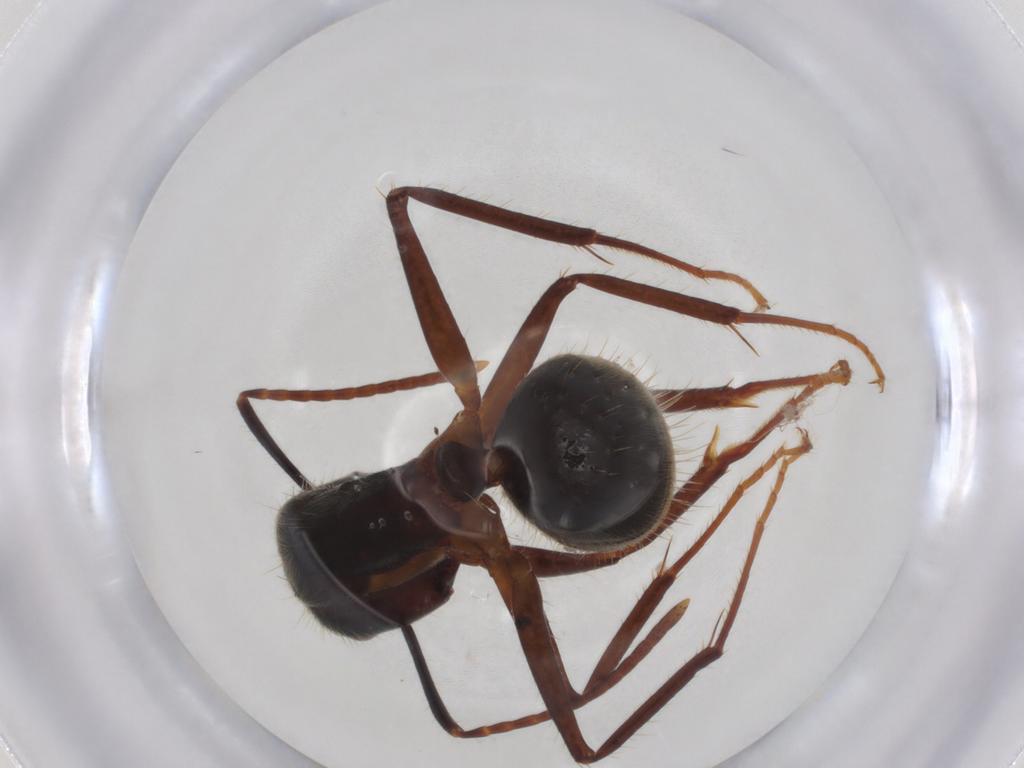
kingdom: Animalia
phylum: Arthropoda
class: Insecta
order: Hymenoptera
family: Formicidae
